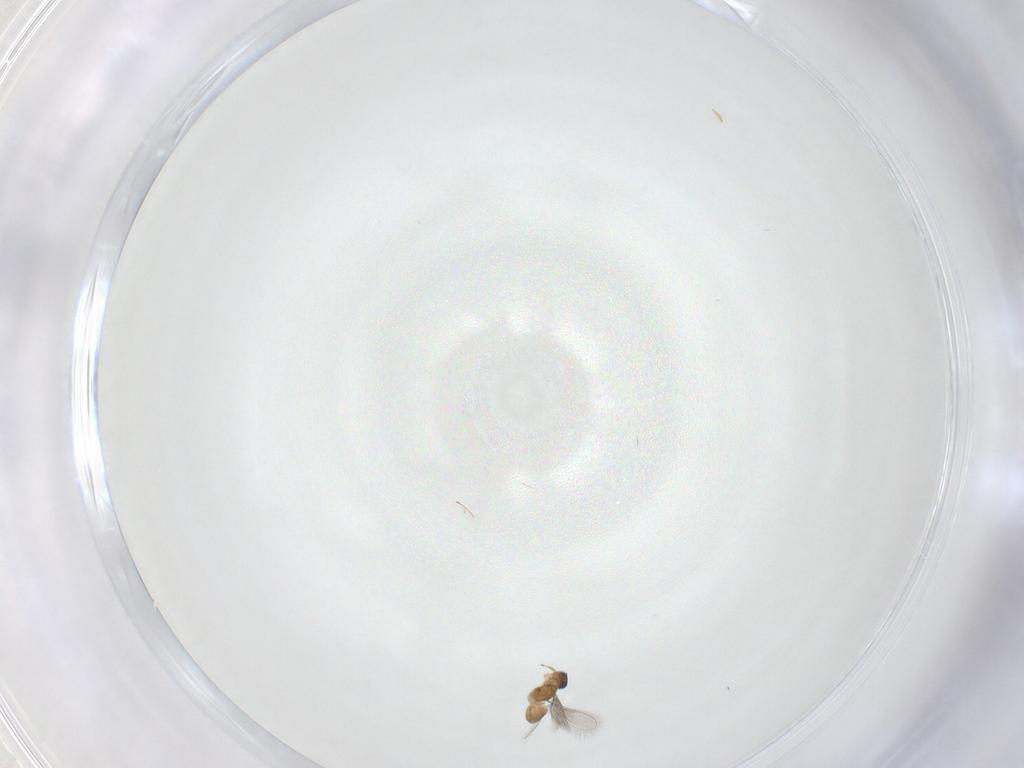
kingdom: Animalia
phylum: Arthropoda
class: Insecta
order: Hymenoptera
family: Mymaridae
